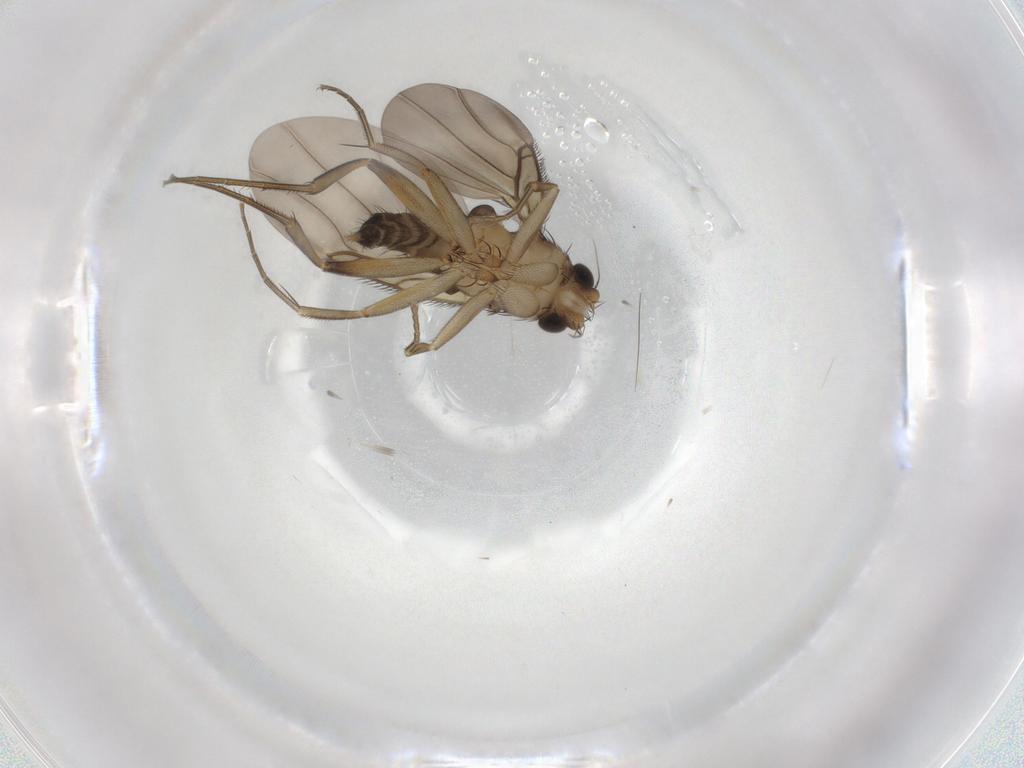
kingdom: Animalia
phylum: Arthropoda
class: Insecta
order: Diptera
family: Phoridae
